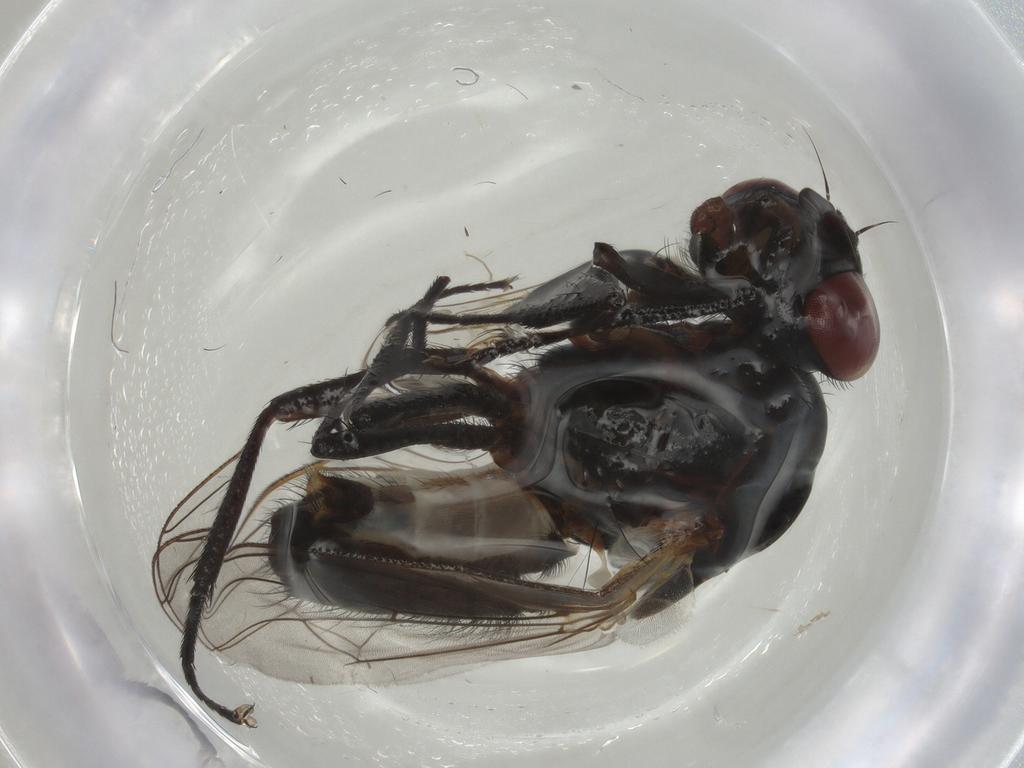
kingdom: Animalia
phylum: Arthropoda
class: Insecta
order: Diptera
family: Anthomyiidae
